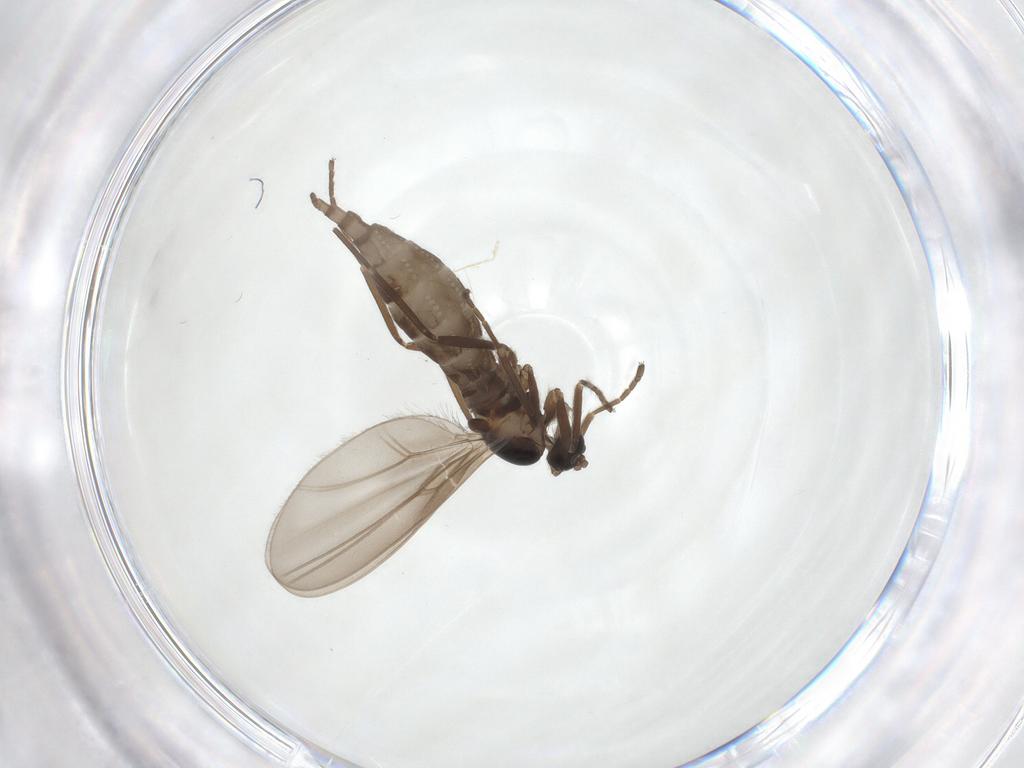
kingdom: Animalia
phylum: Arthropoda
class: Insecta
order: Diptera
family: Cecidomyiidae
